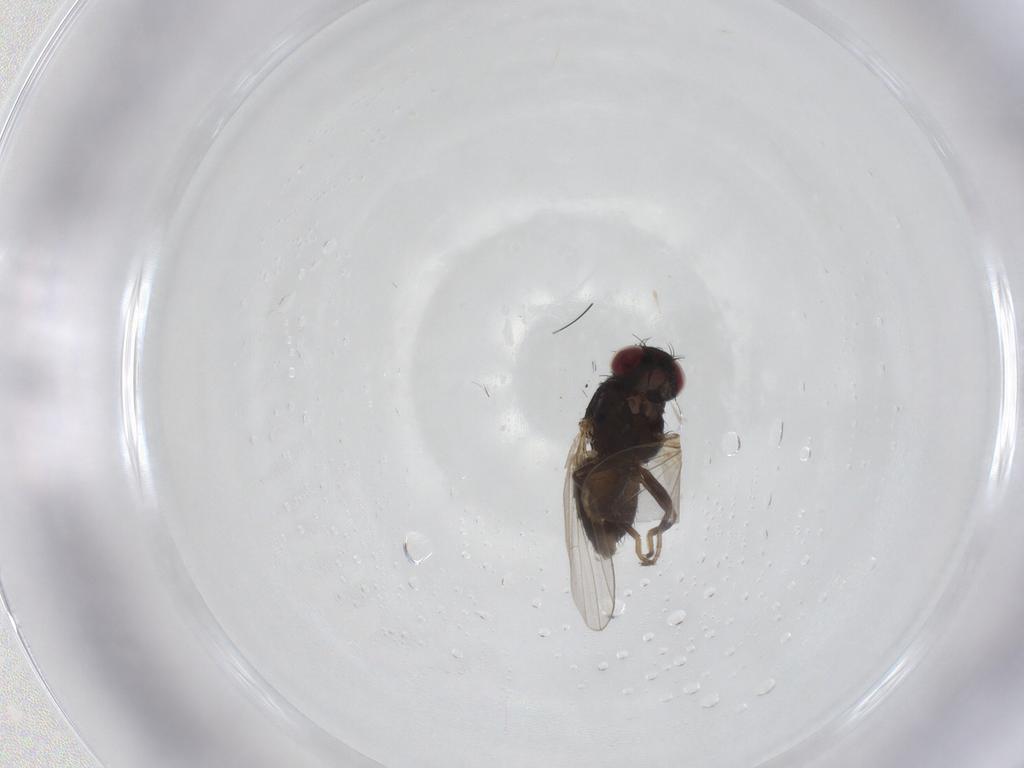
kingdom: Animalia
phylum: Arthropoda
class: Insecta
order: Diptera
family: Carnidae
